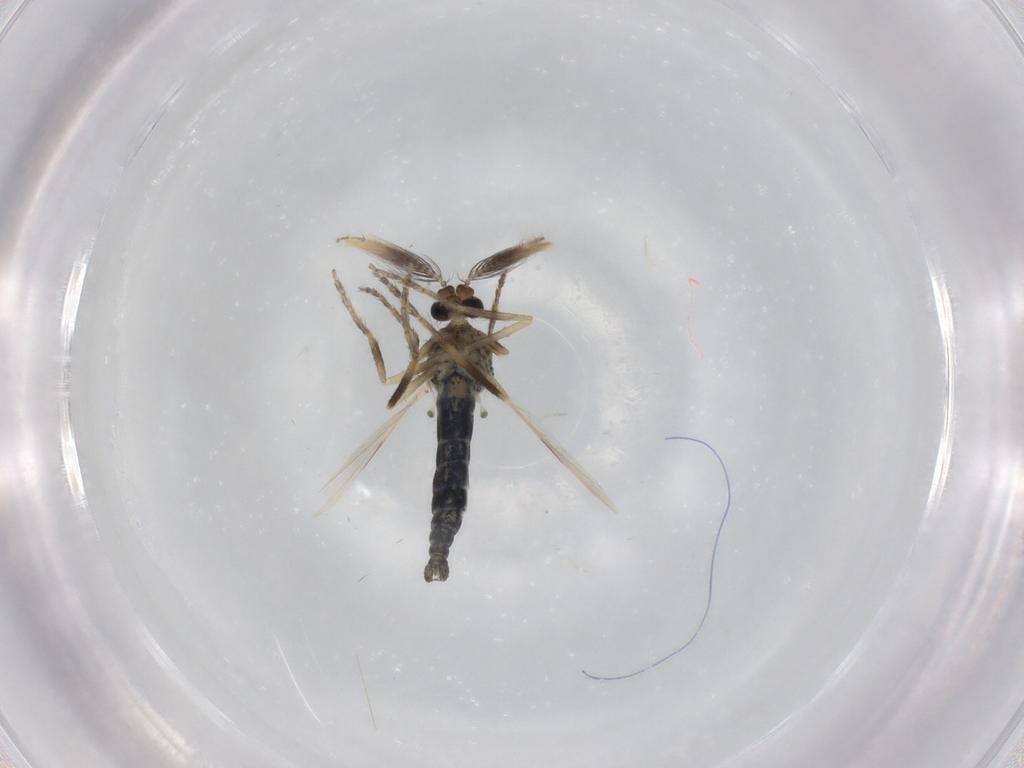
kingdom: Animalia
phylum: Arthropoda
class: Insecta
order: Diptera
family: Ceratopogonidae
